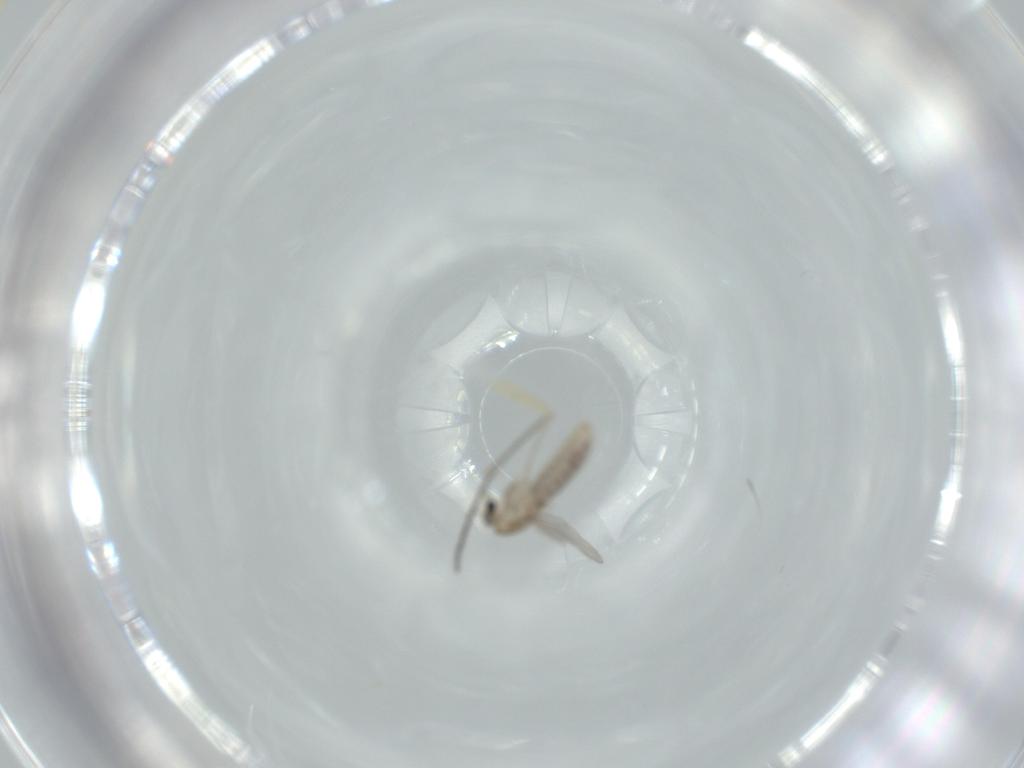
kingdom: Animalia
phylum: Arthropoda
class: Insecta
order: Diptera
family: Chironomidae
